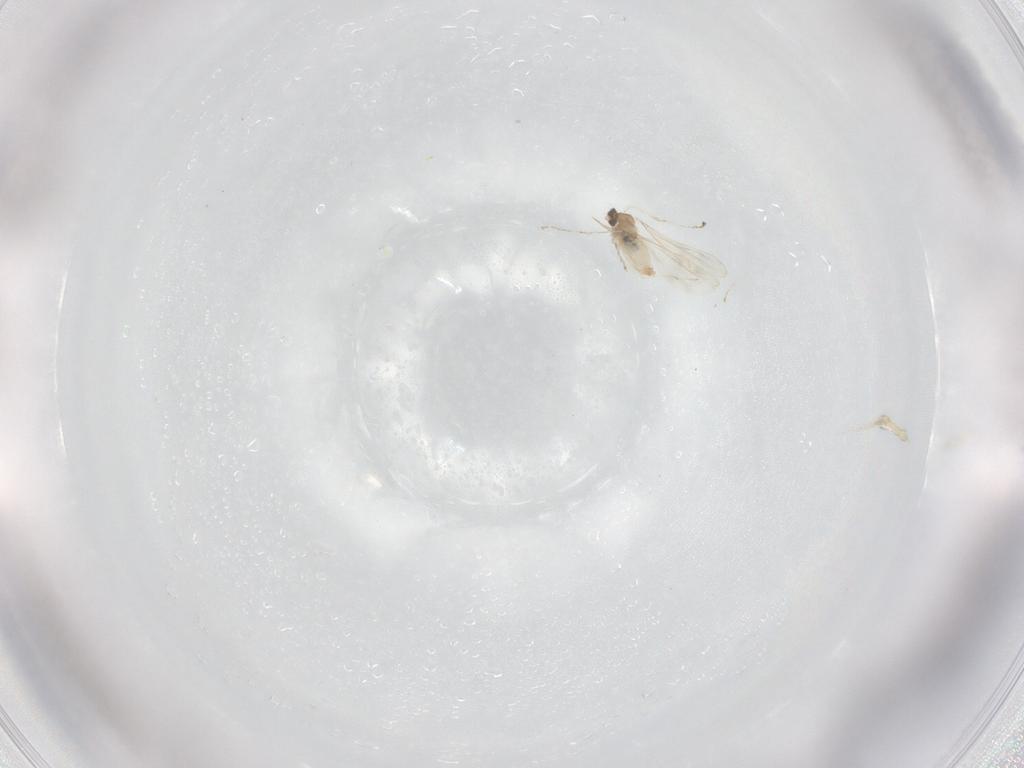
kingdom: Animalia
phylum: Arthropoda
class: Insecta
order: Diptera
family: Cecidomyiidae
